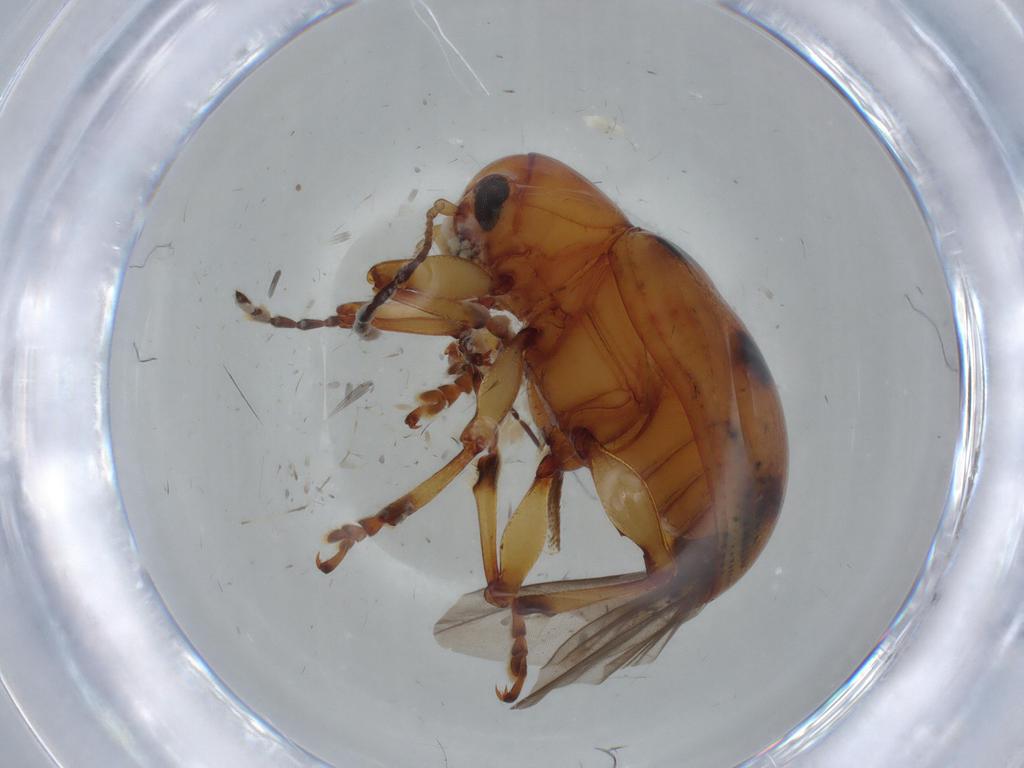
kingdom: Animalia
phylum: Arthropoda
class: Insecta
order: Coleoptera
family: Chrysomelidae
